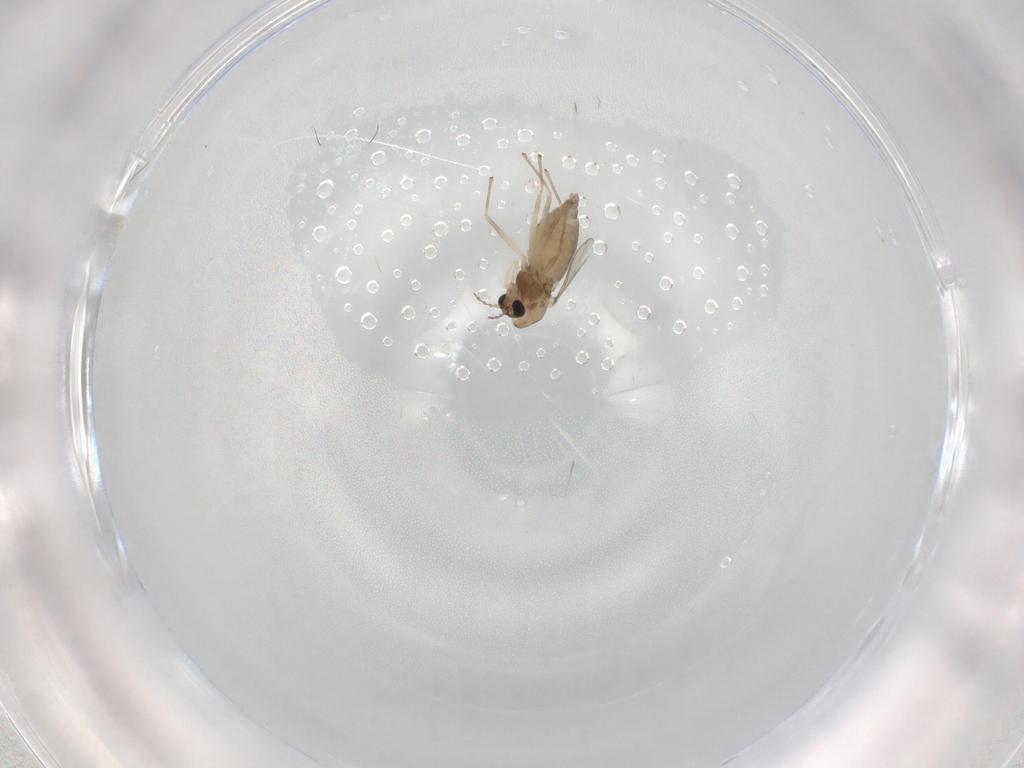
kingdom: Animalia
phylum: Arthropoda
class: Insecta
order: Diptera
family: Chironomidae
